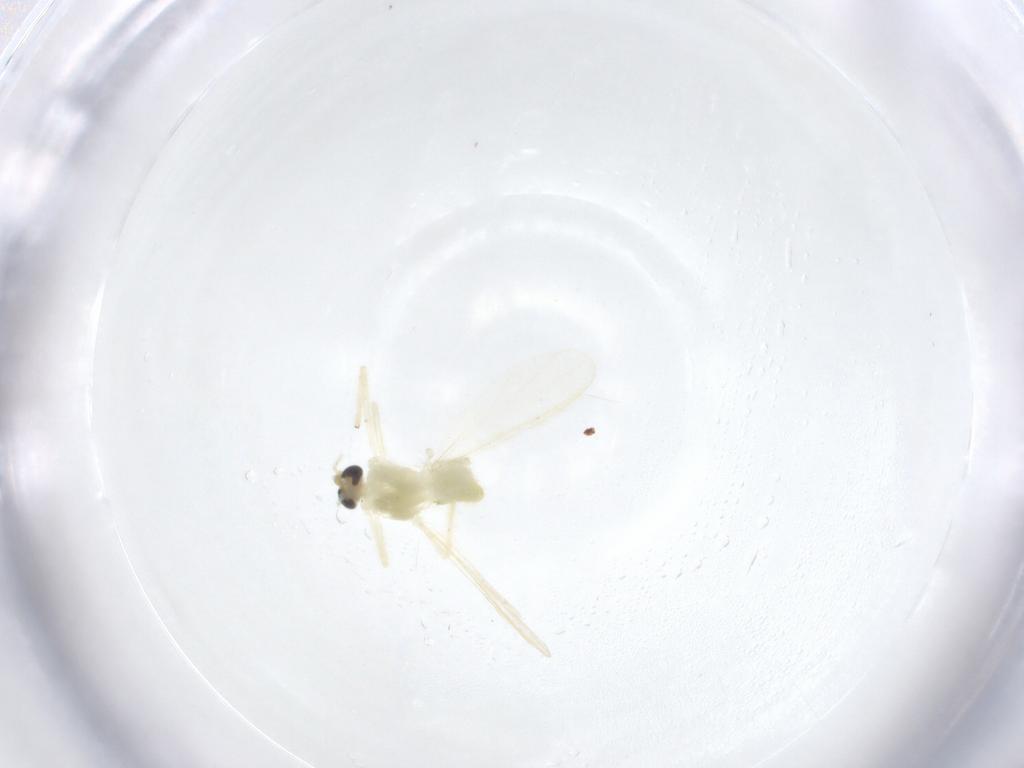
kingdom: Animalia
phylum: Arthropoda
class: Insecta
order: Diptera
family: Chironomidae
